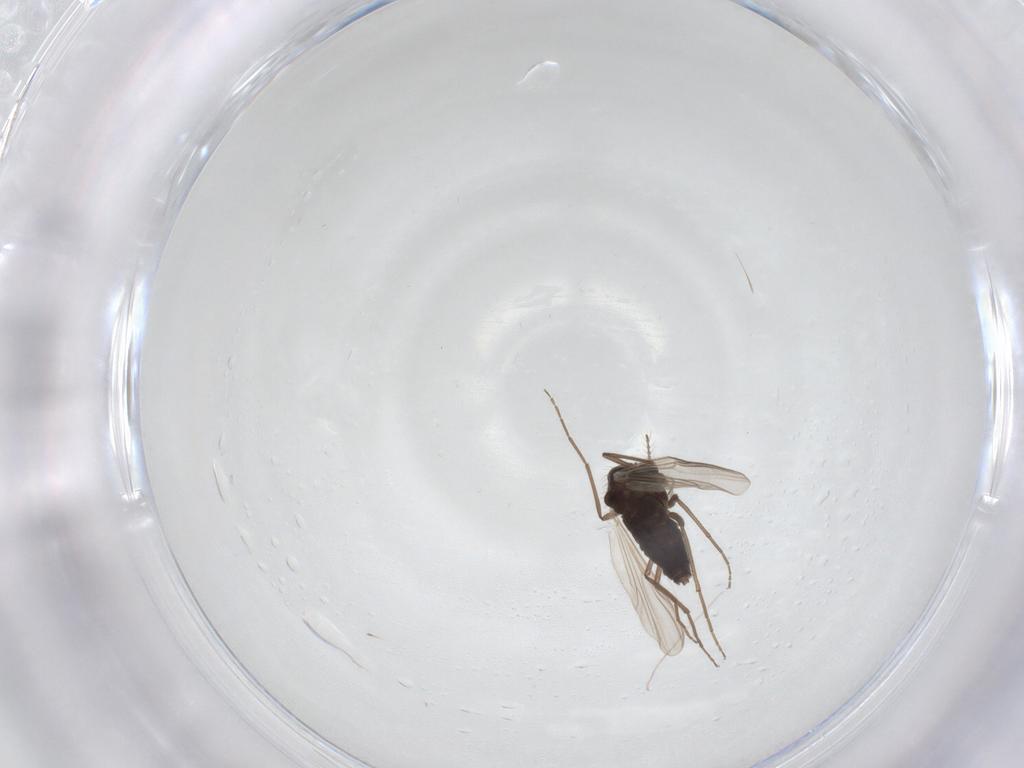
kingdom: Animalia
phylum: Arthropoda
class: Insecta
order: Diptera
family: Chironomidae
